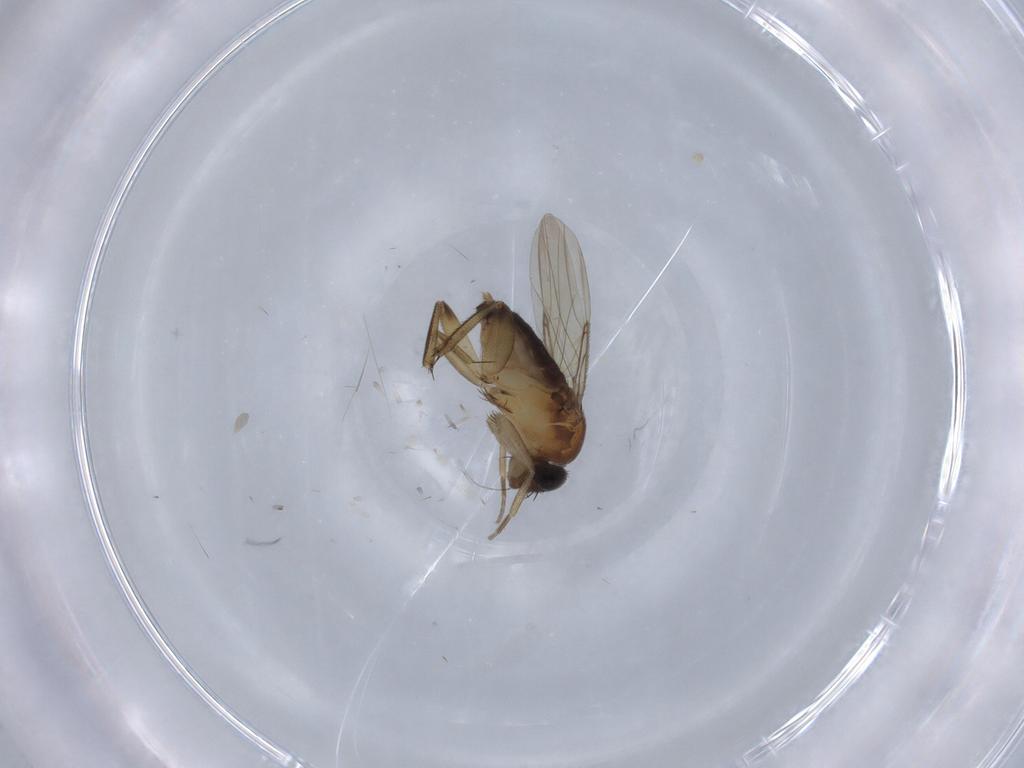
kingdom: Animalia
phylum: Arthropoda
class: Insecta
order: Diptera
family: Phoridae
